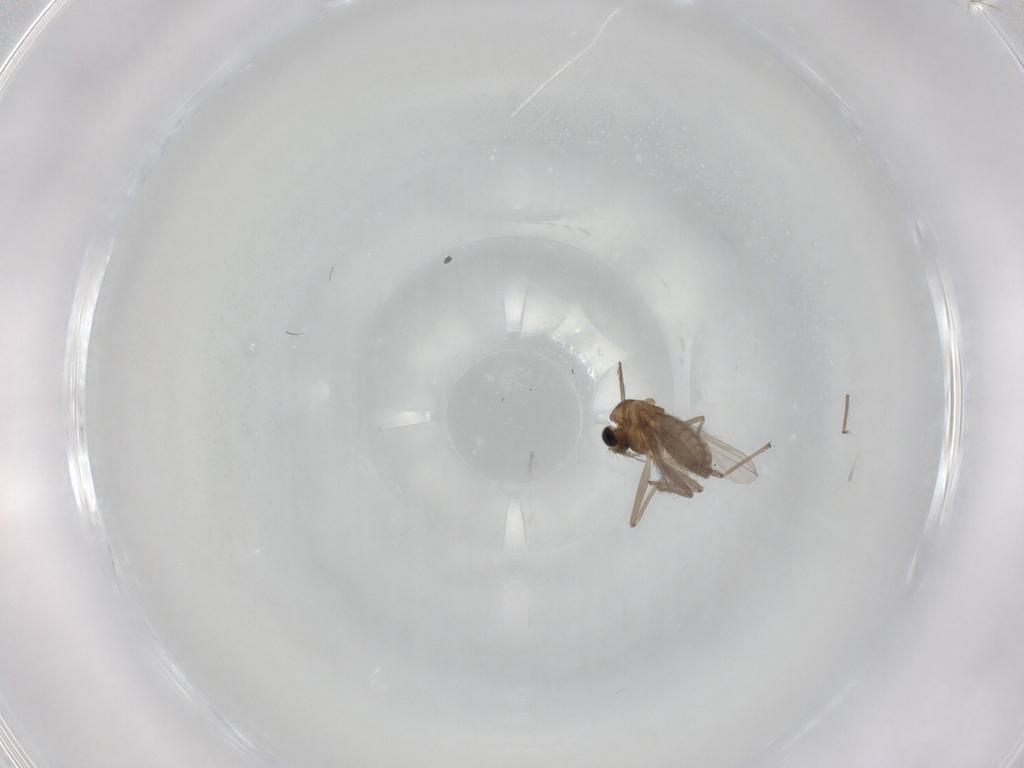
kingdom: Animalia
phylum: Arthropoda
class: Insecta
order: Diptera
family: Chironomidae
